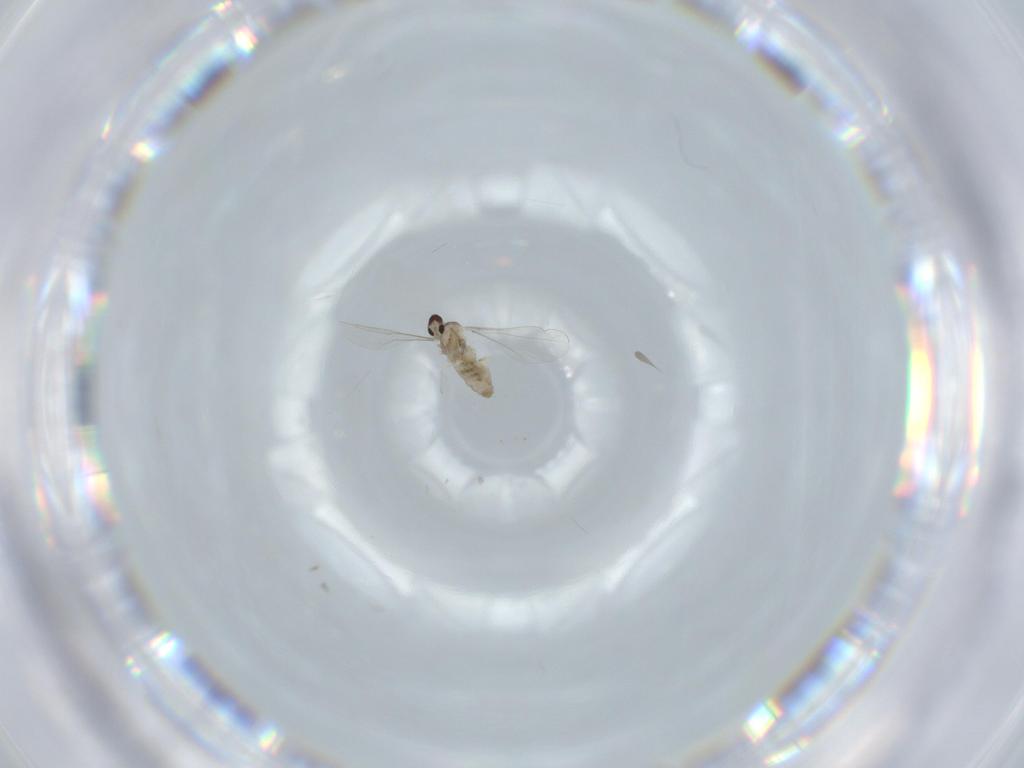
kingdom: Animalia
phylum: Arthropoda
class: Insecta
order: Diptera
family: Cecidomyiidae
